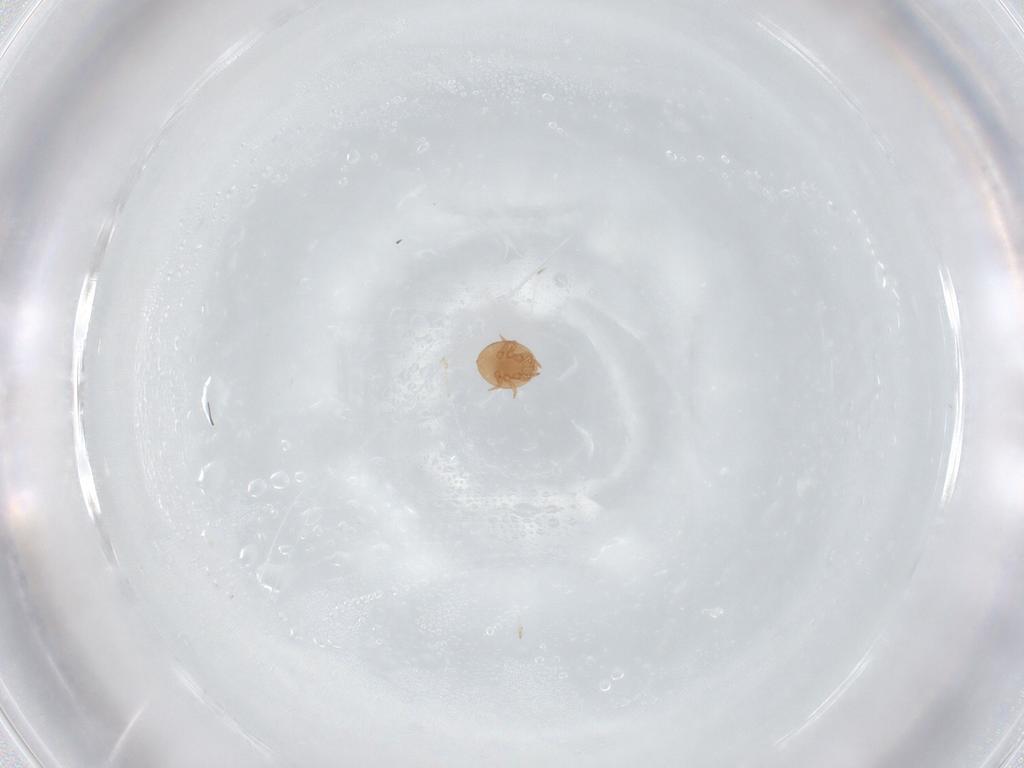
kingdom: Animalia
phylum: Arthropoda
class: Arachnida
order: Mesostigmata
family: Trematuridae
